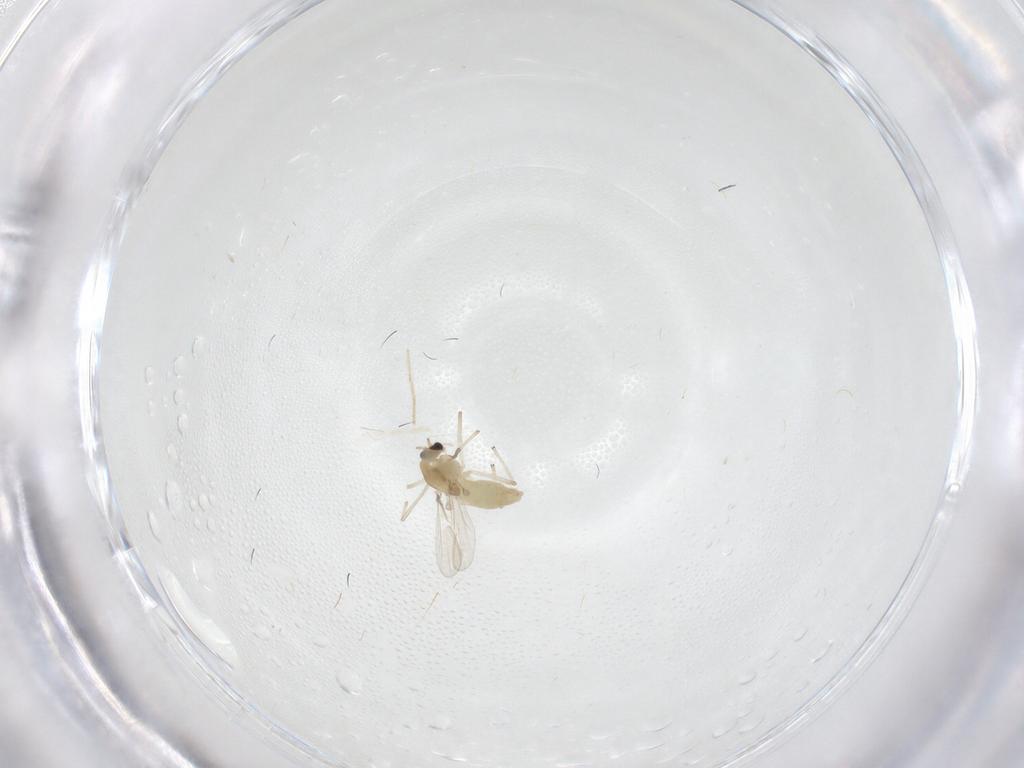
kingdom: Animalia
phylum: Arthropoda
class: Insecta
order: Diptera
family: Chironomidae
